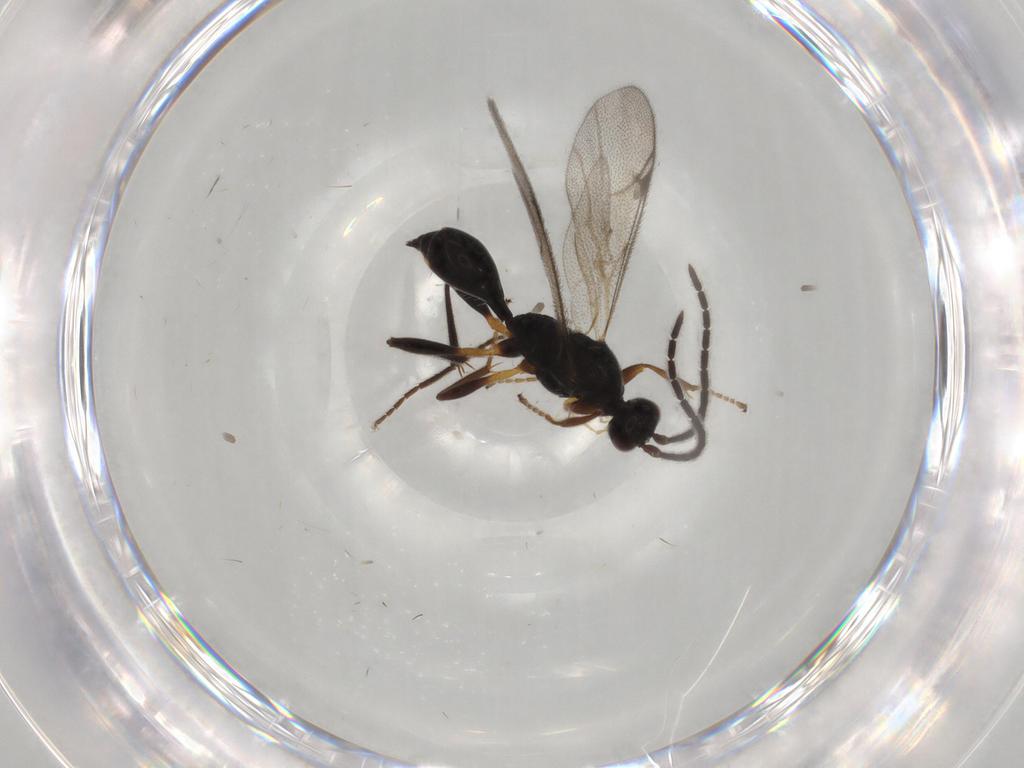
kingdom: Animalia
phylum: Arthropoda
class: Insecta
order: Hymenoptera
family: Proctotrupidae
